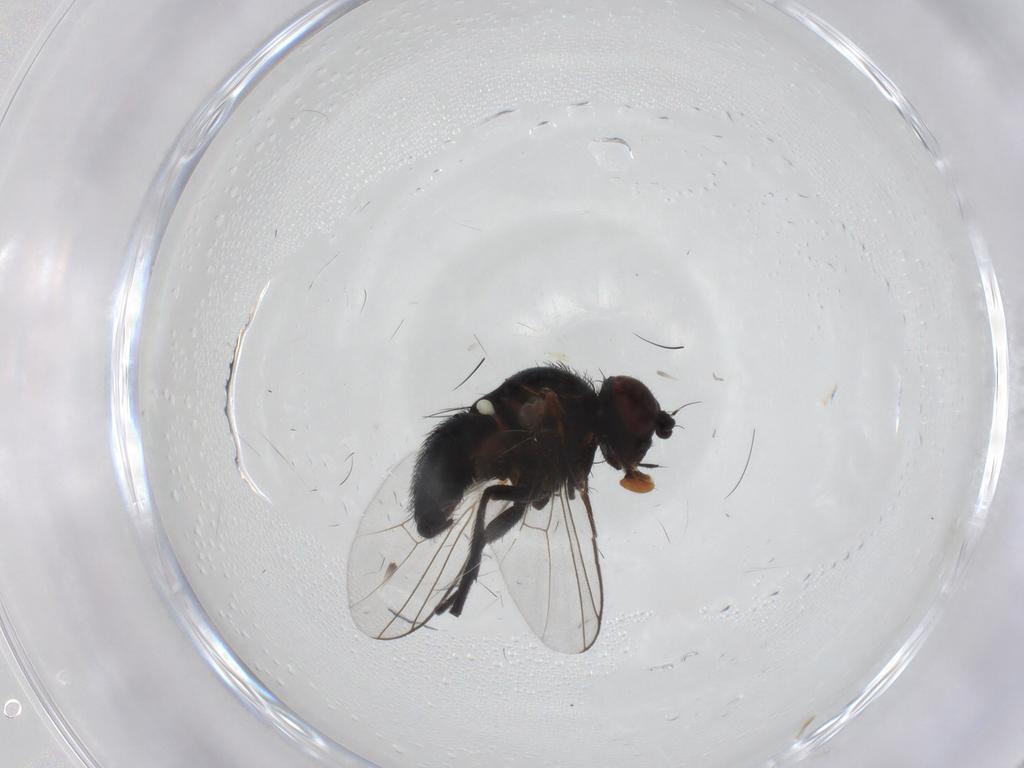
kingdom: Animalia
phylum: Arthropoda
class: Insecta
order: Diptera
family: Agromyzidae
